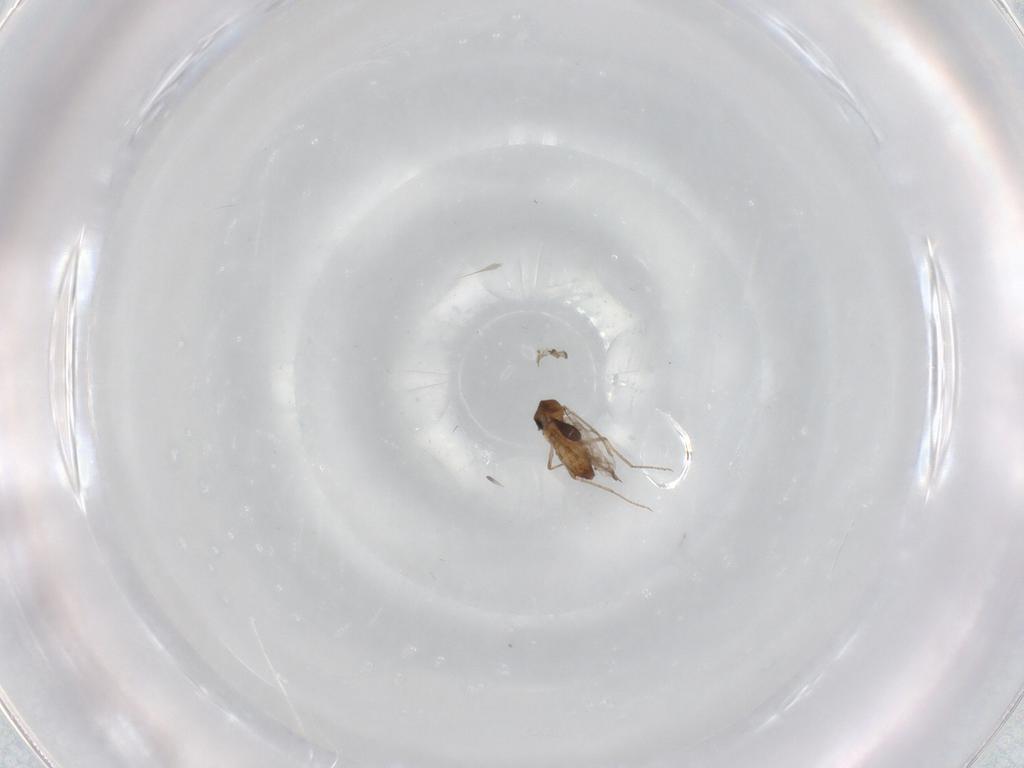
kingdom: Animalia
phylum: Arthropoda
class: Insecta
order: Diptera
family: Ceratopogonidae
